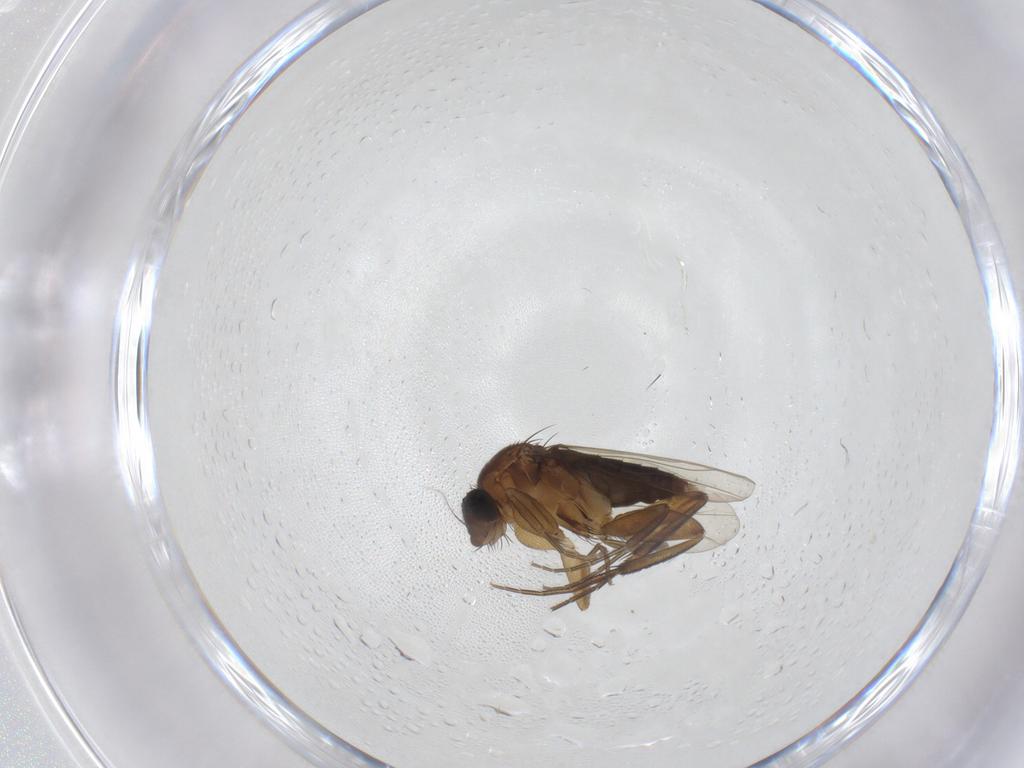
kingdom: Animalia
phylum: Arthropoda
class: Insecta
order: Diptera
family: Phoridae
